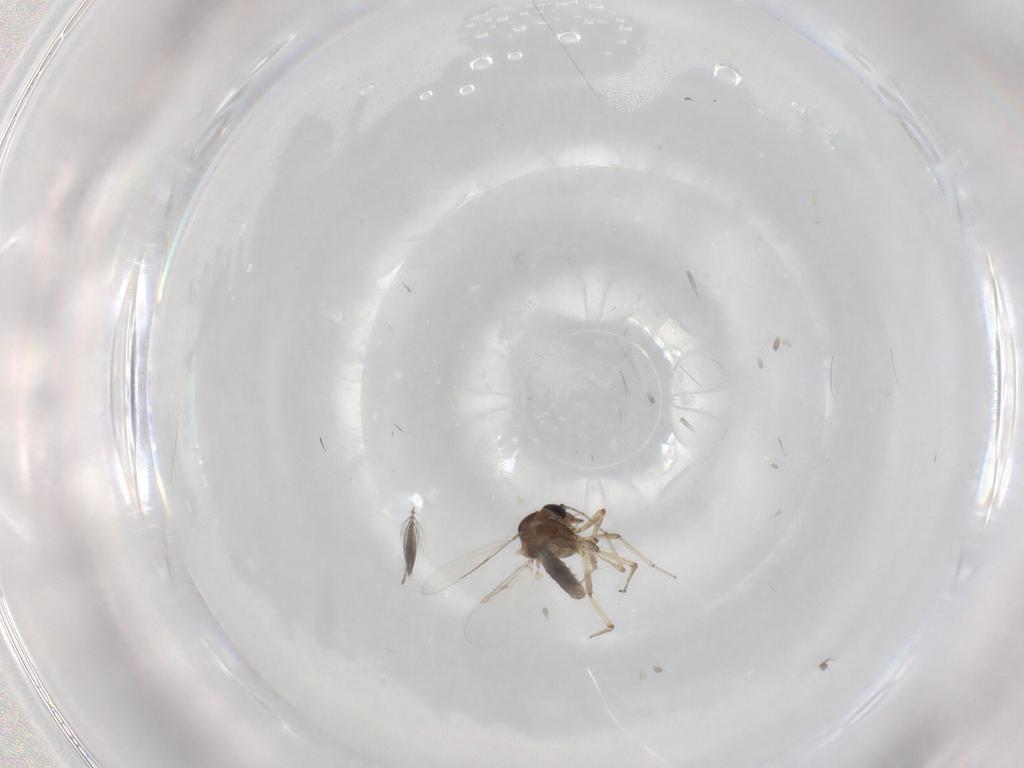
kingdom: Animalia
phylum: Arthropoda
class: Insecta
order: Diptera
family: Ceratopogonidae
